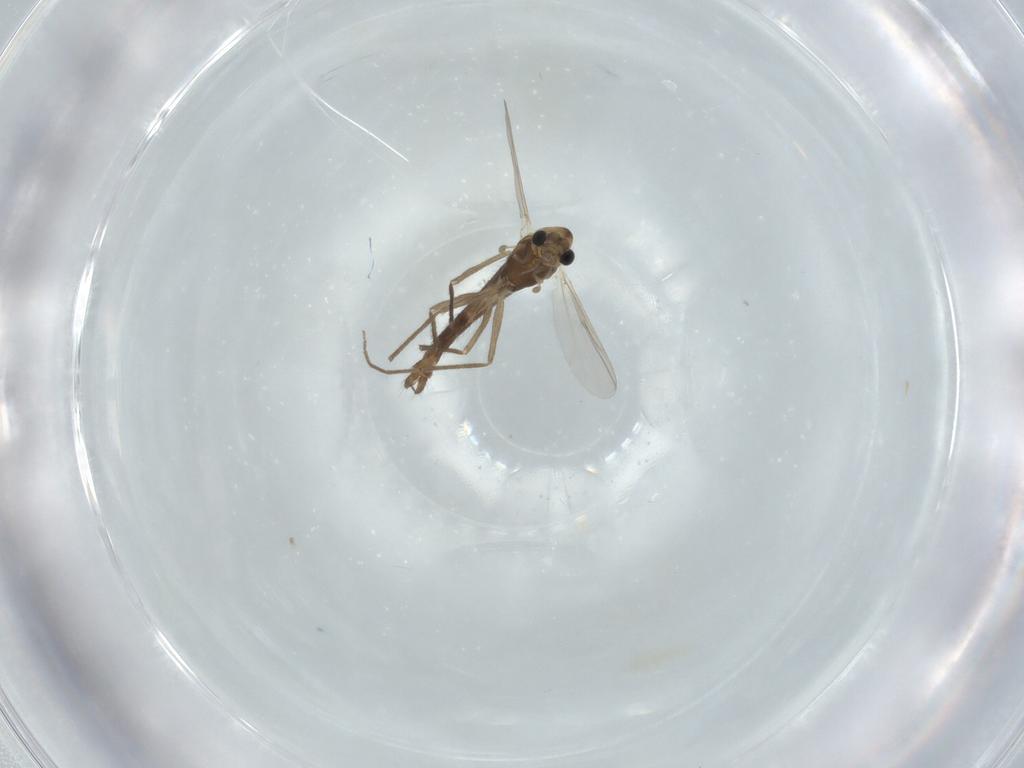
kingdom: Animalia
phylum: Arthropoda
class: Insecta
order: Diptera
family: Chironomidae
